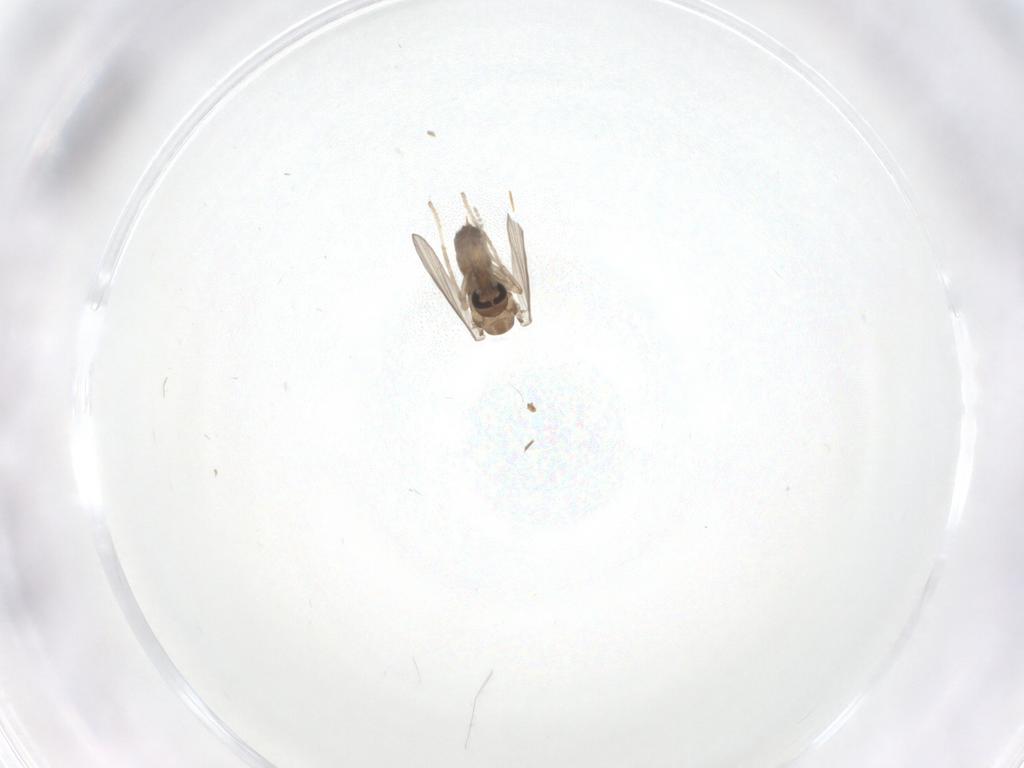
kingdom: Animalia
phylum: Arthropoda
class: Insecta
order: Diptera
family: Psychodidae
